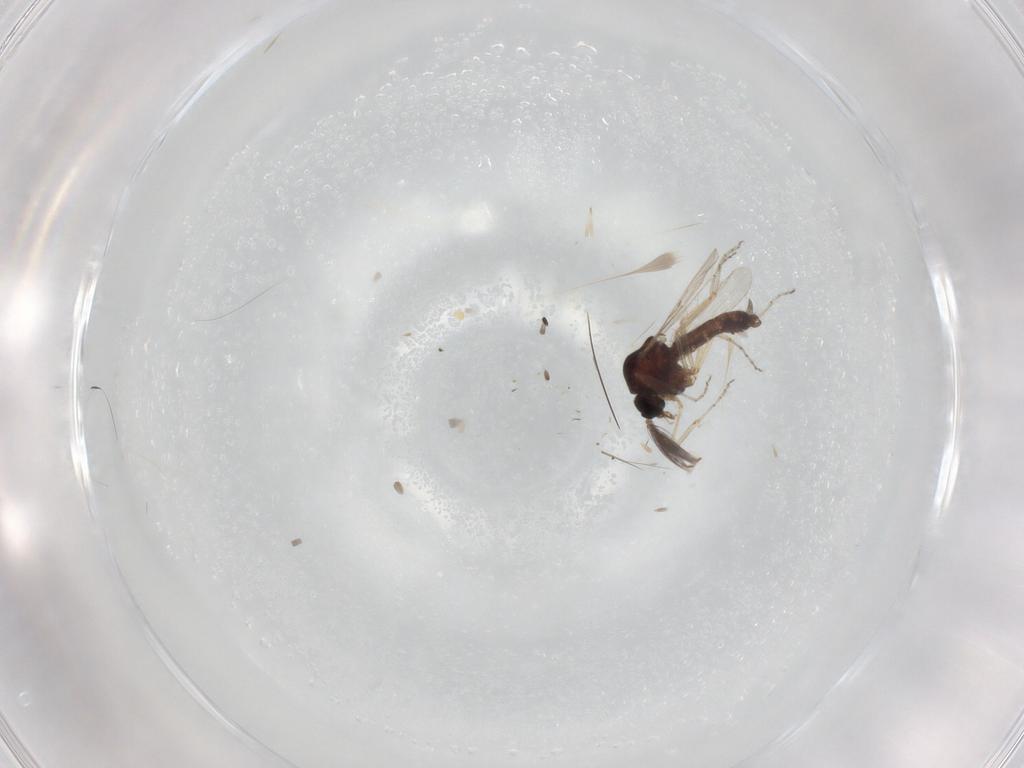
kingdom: Animalia
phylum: Arthropoda
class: Insecta
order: Diptera
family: Ceratopogonidae
